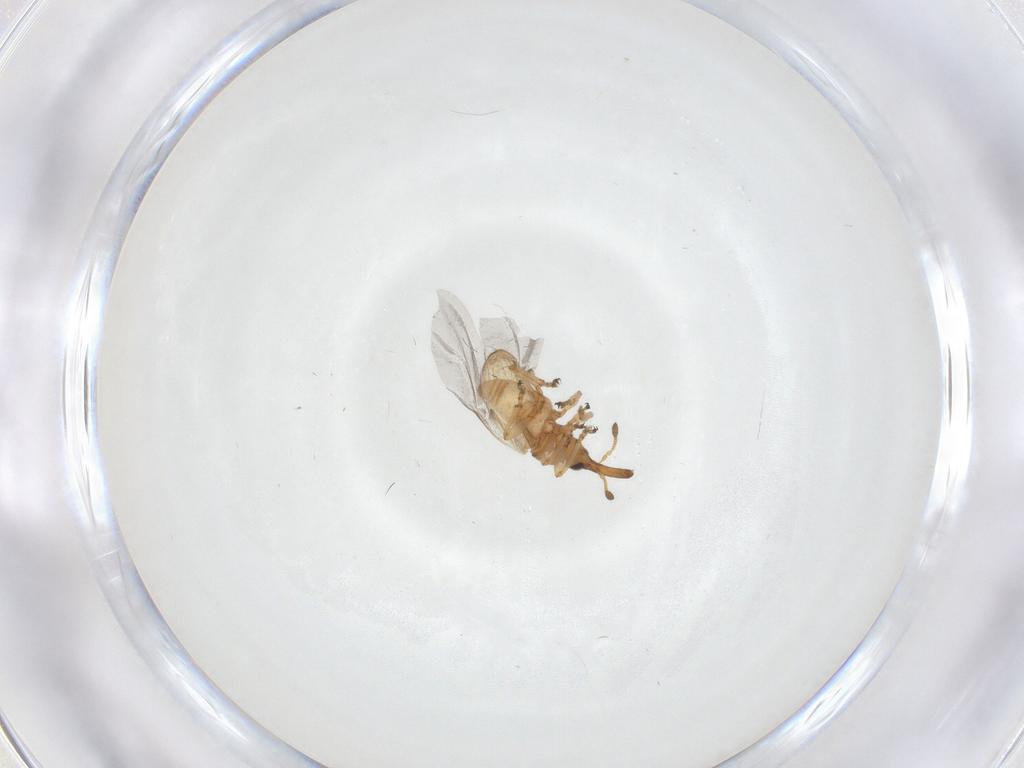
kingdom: Animalia
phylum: Arthropoda
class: Insecta
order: Coleoptera
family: Brentidae
